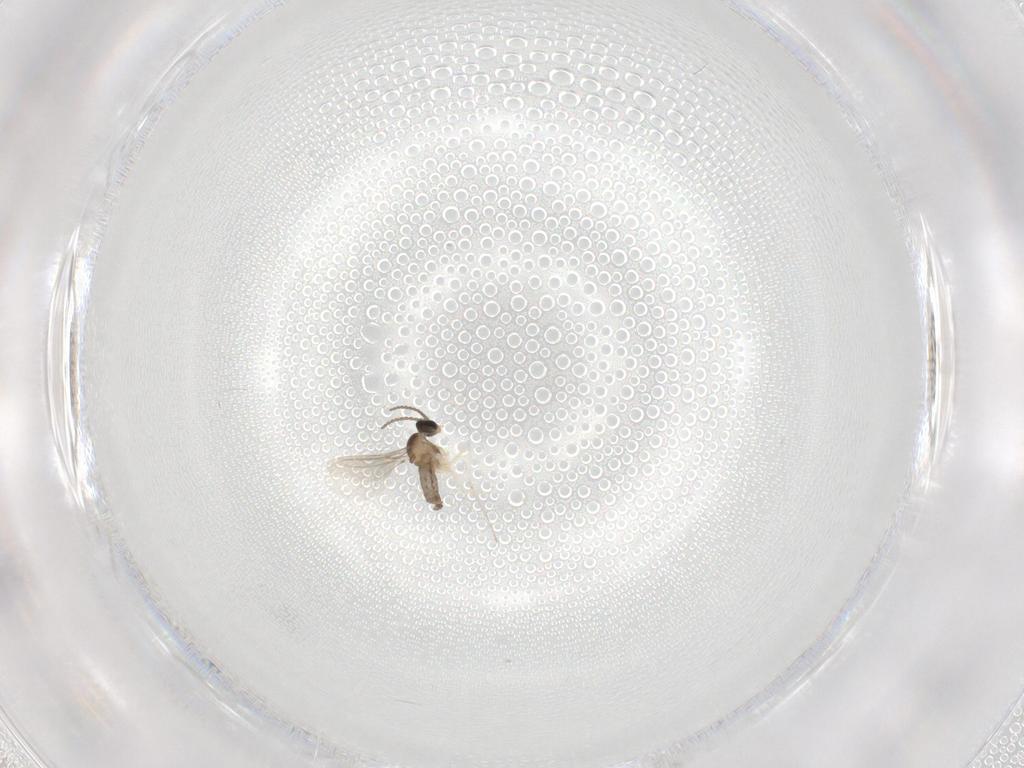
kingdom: Animalia
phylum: Arthropoda
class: Insecta
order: Diptera
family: Cecidomyiidae
